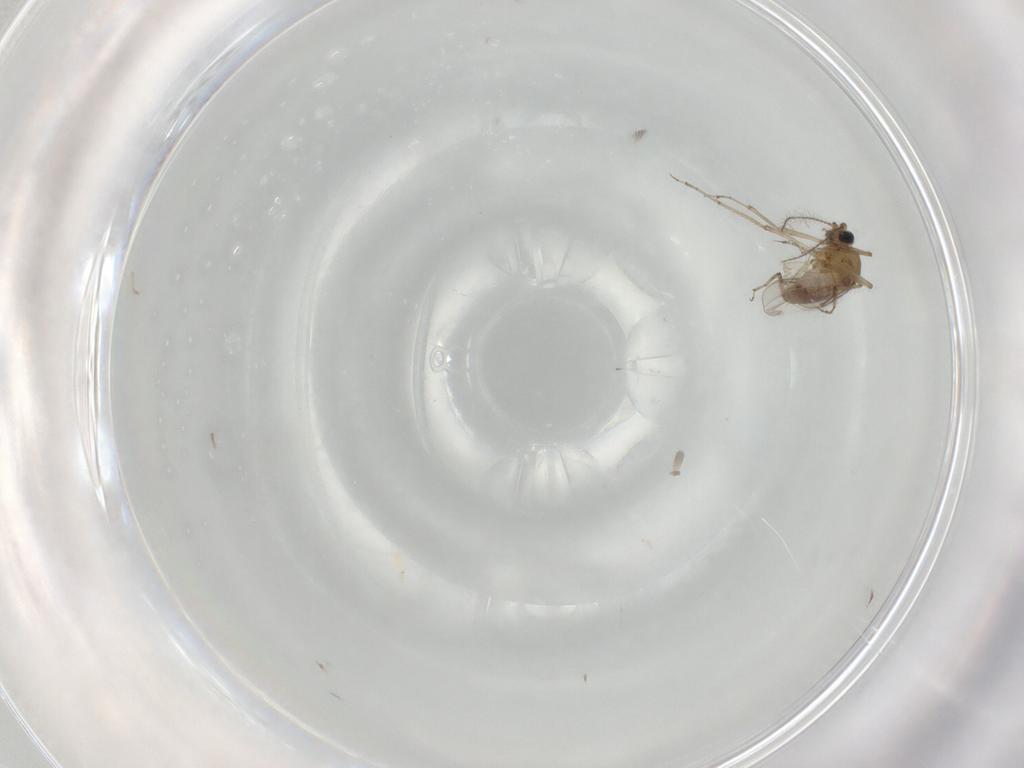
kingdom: Animalia
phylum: Arthropoda
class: Insecta
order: Diptera
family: Ceratopogonidae
